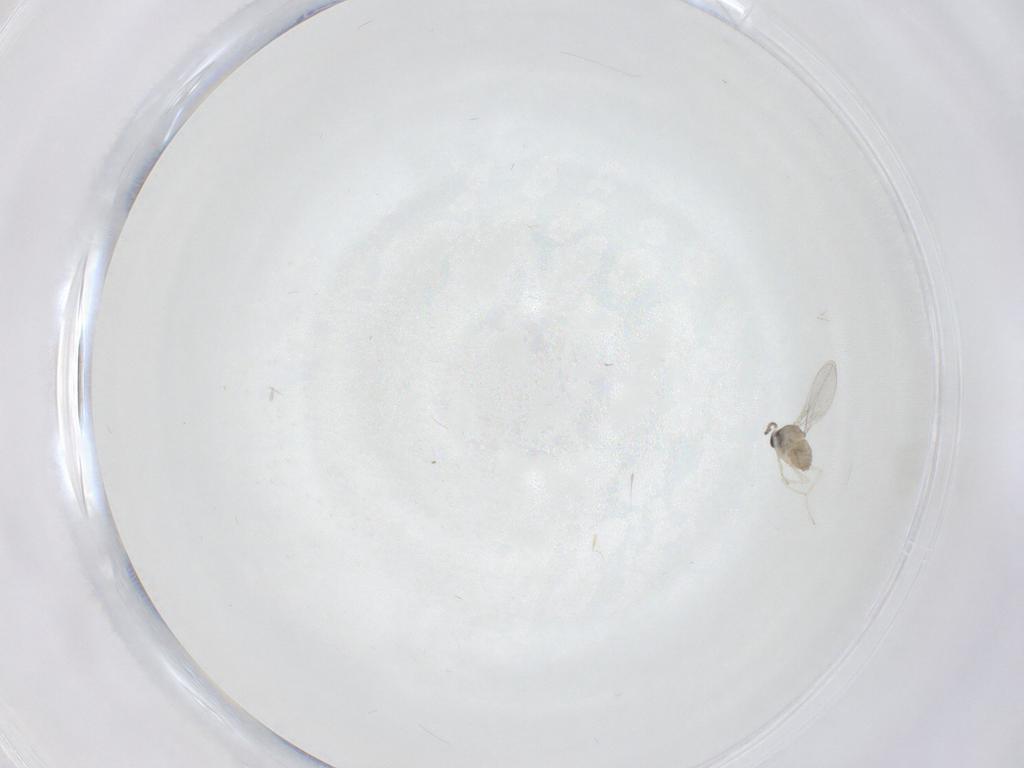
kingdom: Animalia
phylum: Arthropoda
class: Insecta
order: Diptera
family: Cecidomyiidae
